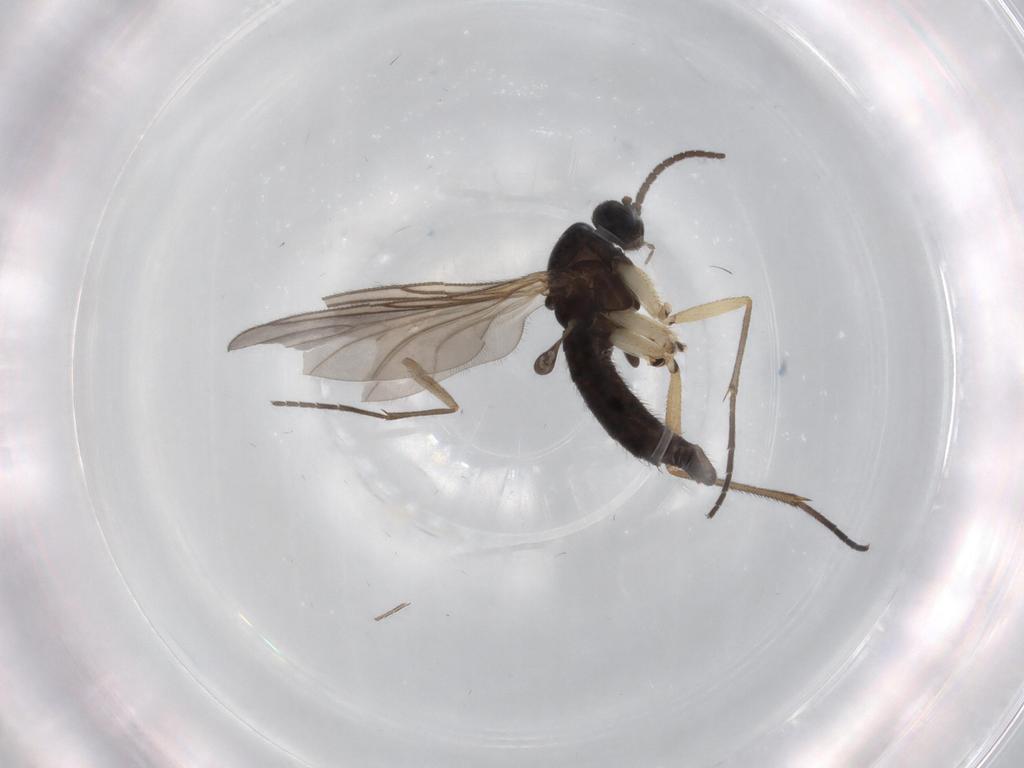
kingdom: Animalia
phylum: Arthropoda
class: Insecta
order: Diptera
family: Sciaridae
